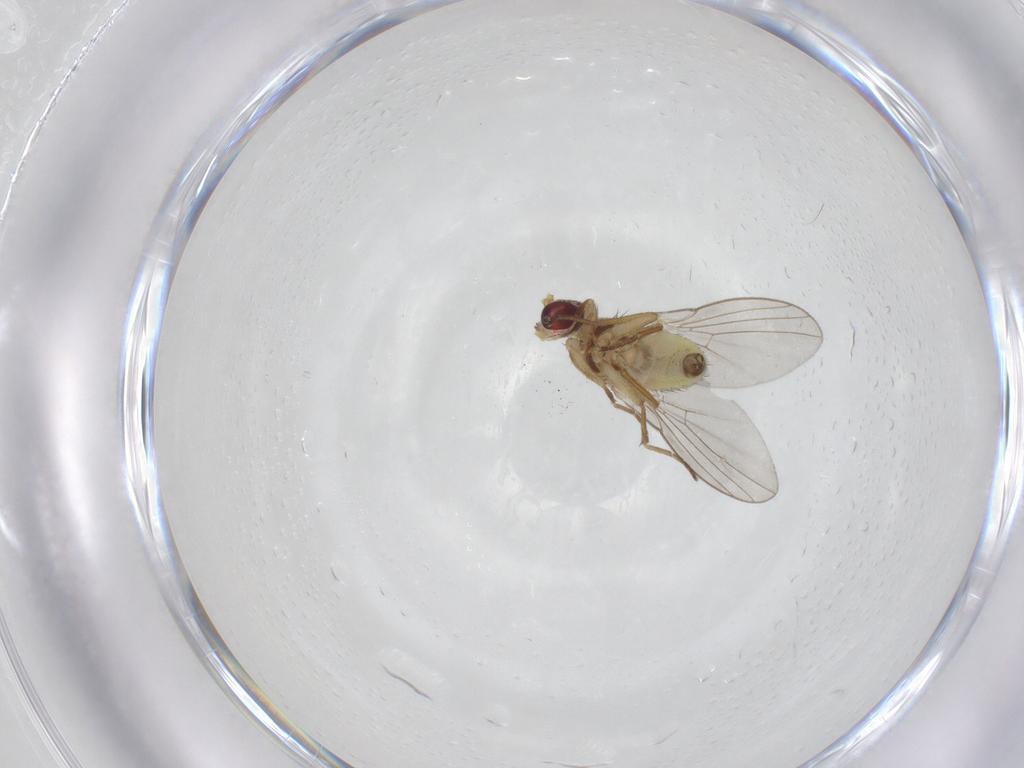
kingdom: Animalia
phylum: Arthropoda
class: Insecta
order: Diptera
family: Agromyzidae
